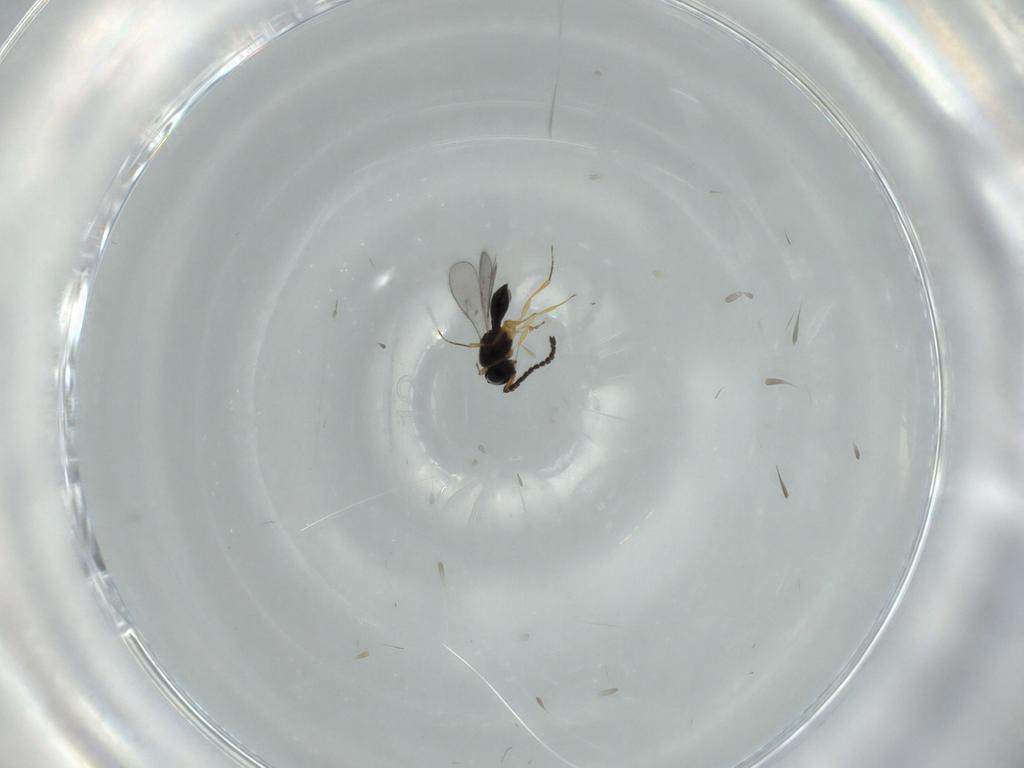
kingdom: Animalia
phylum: Arthropoda
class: Insecta
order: Hymenoptera
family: Scelionidae
